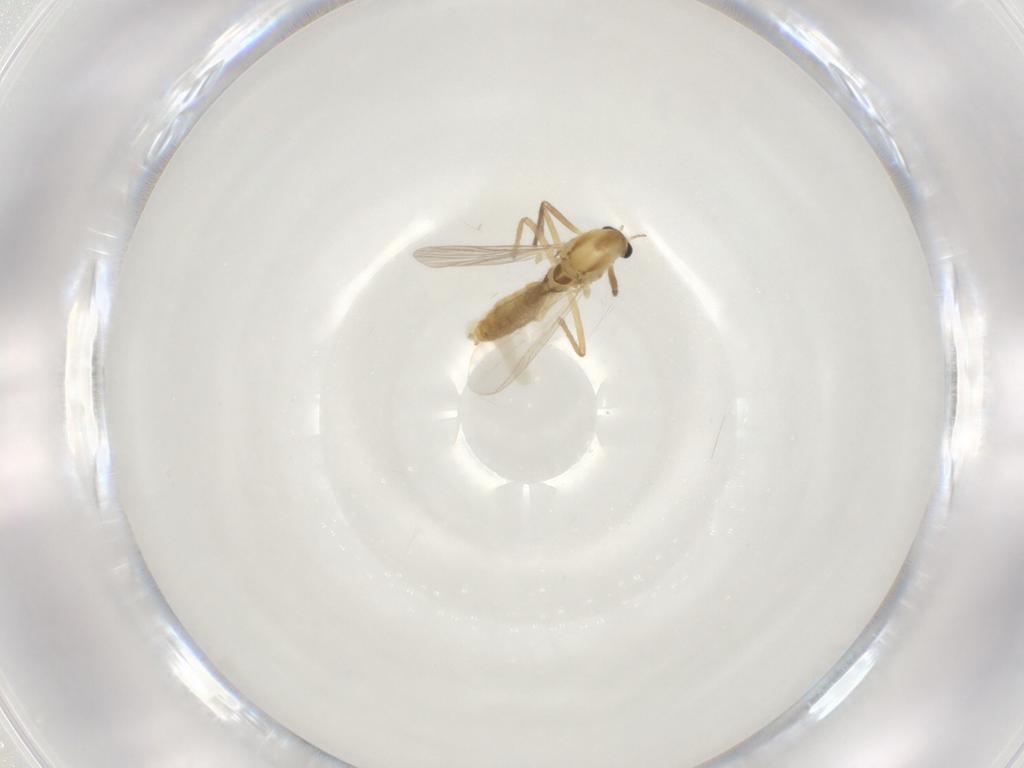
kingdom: Animalia
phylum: Arthropoda
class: Insecta
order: Diptera
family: Chironomidae
